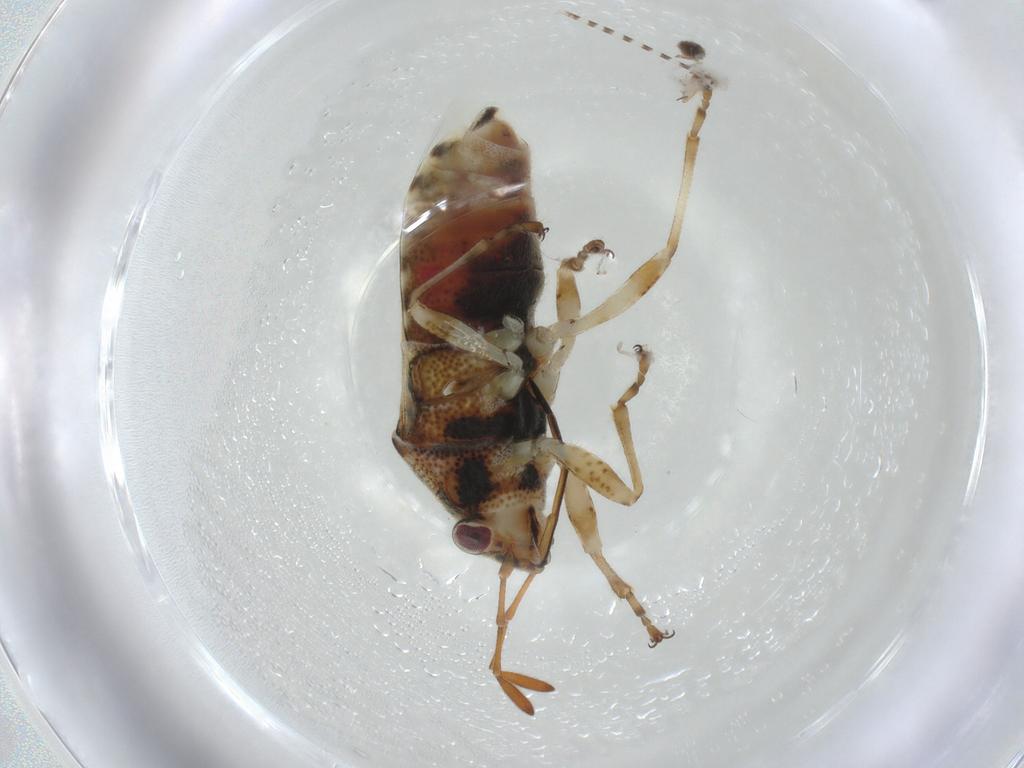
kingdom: Animalia
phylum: Arthropoda
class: Insecta
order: Hemiptera
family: Lygaeidae
